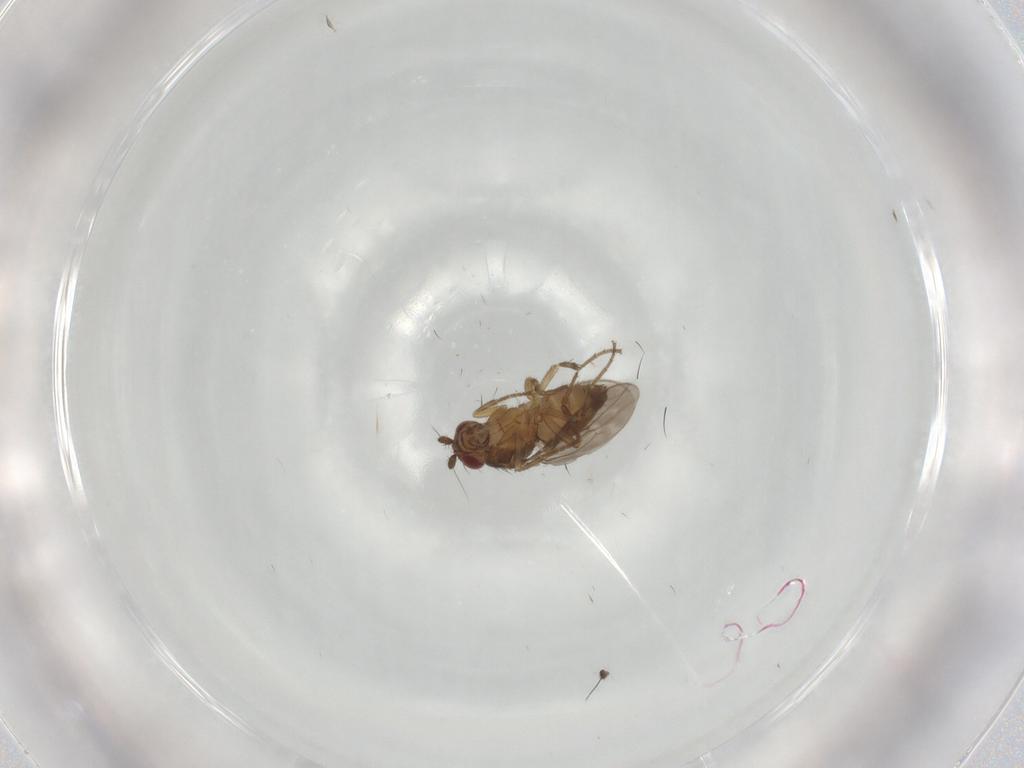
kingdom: Animalia
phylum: Arthropoda
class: Insecta
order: Diptera
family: Sphaeroceridae
